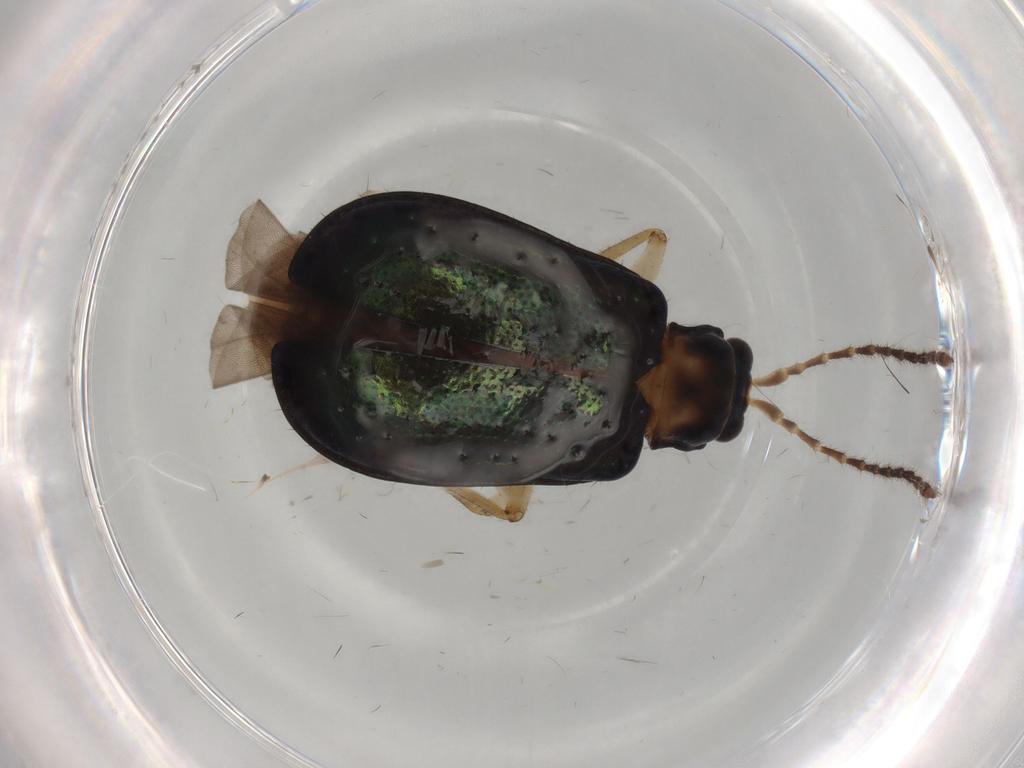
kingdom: Animalia
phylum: Arthropoda
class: Insecta
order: Coleoptera
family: Chrysomelidae
